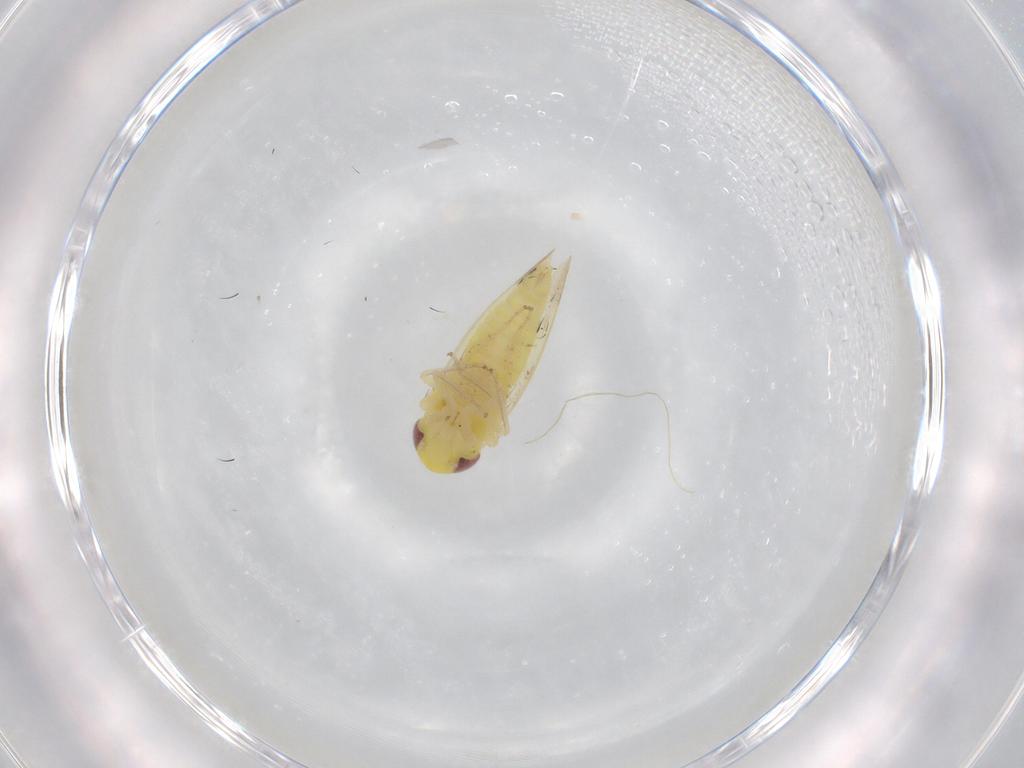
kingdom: Animalia
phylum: Arthropoda
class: Insecta
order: Hemiptera
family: Cicadellidae
